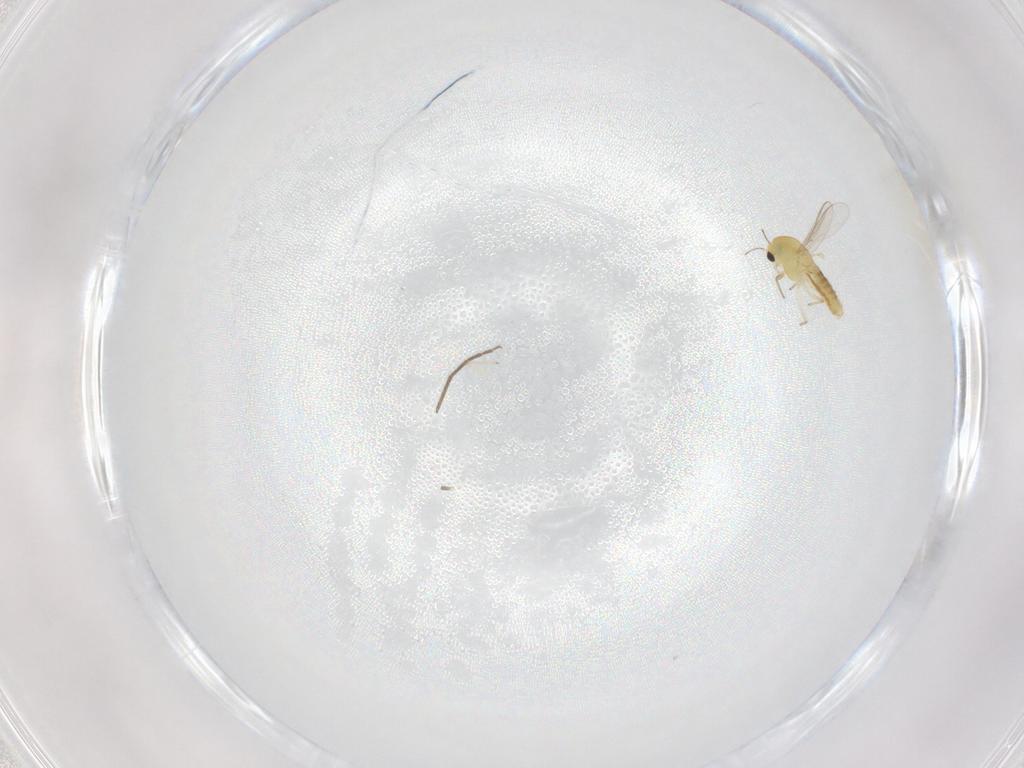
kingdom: Animalia
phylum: Arthropoda
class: Insecta
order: Diptera
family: Chironomidae
